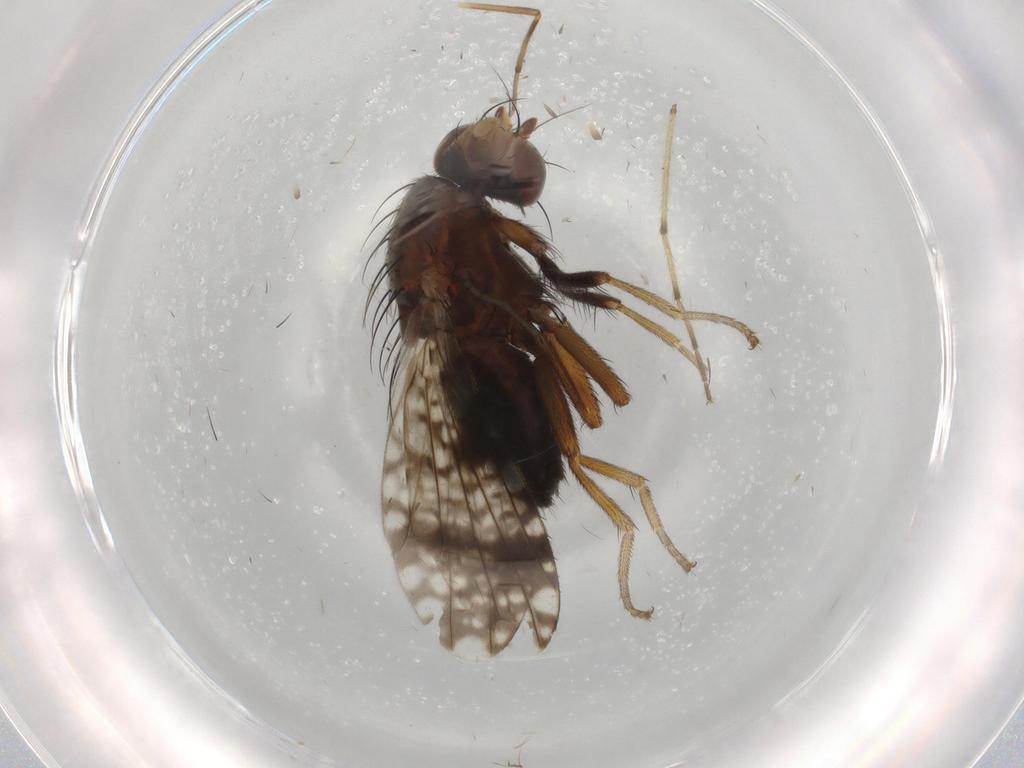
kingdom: Animalia
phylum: Arthropoda
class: Insecta
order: Diptera
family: Tephritidae
